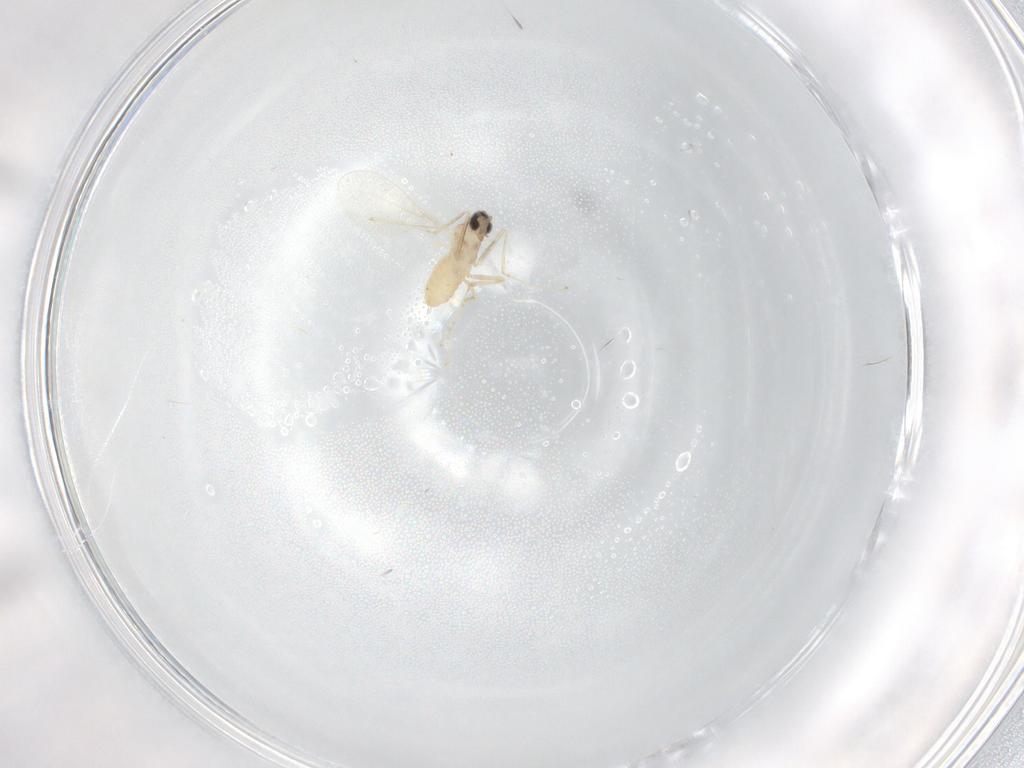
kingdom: Animalia
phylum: Arthropoda
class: Insecta
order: Diptera
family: Cecidomyiidae
